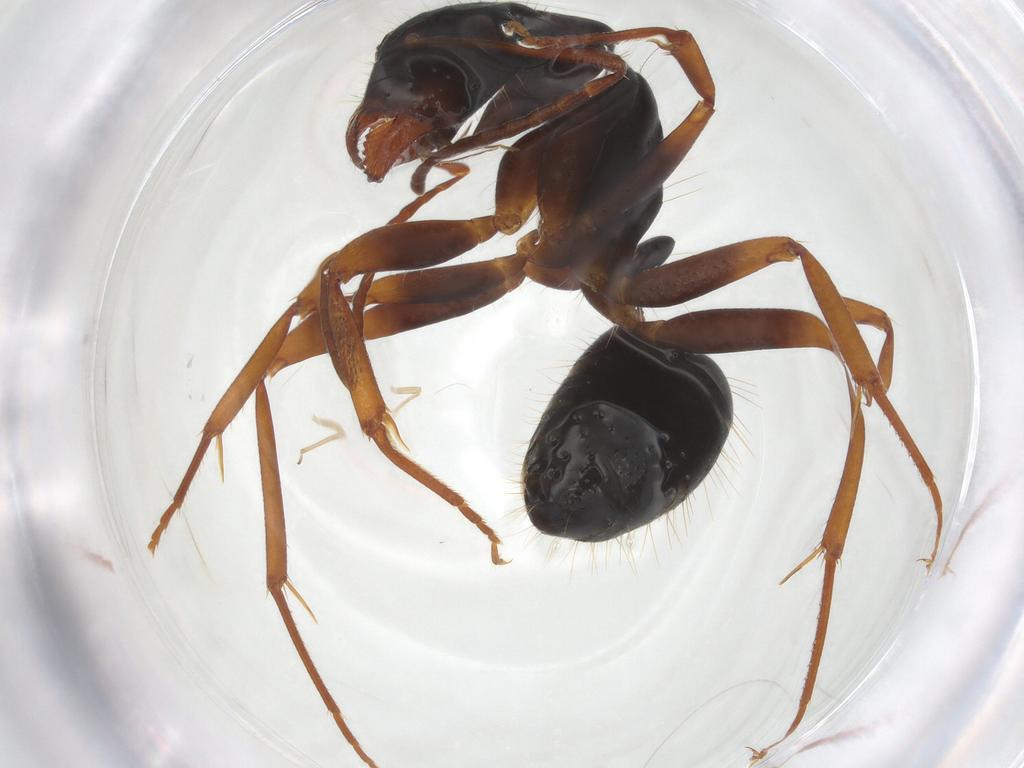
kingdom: Animalia
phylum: Arthropoda
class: Insecta
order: Hymenoptera
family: Formicidae
